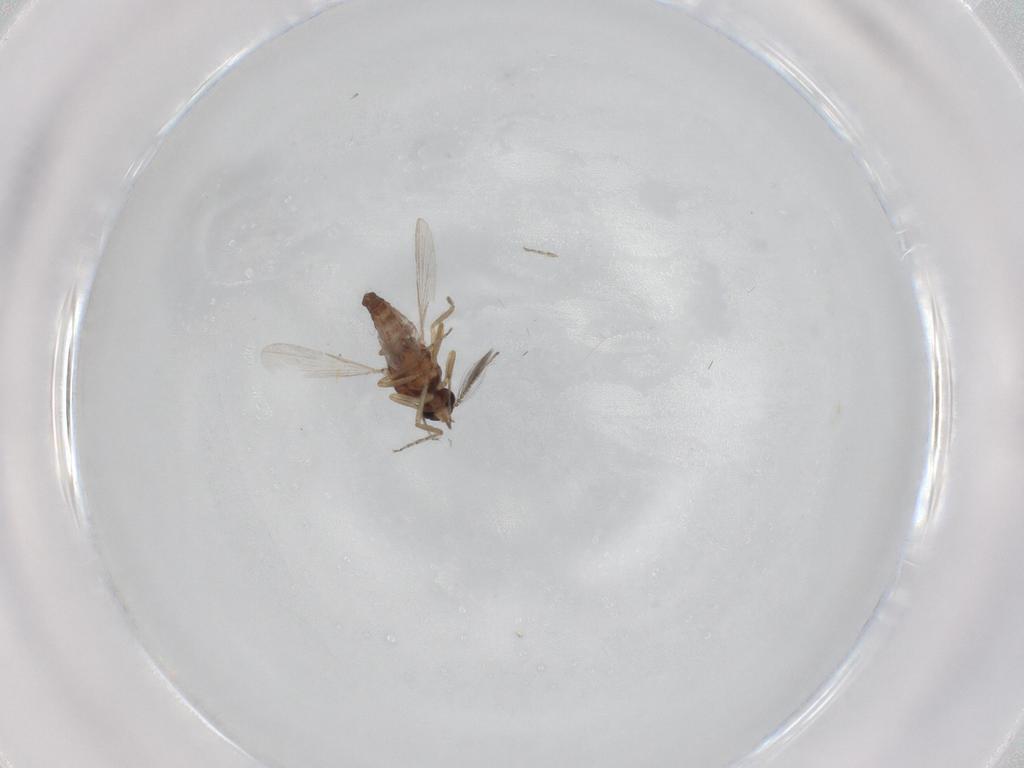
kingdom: Animalia
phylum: Arthropoda
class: Insecta
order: Diptera
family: Ceratopogonidae
